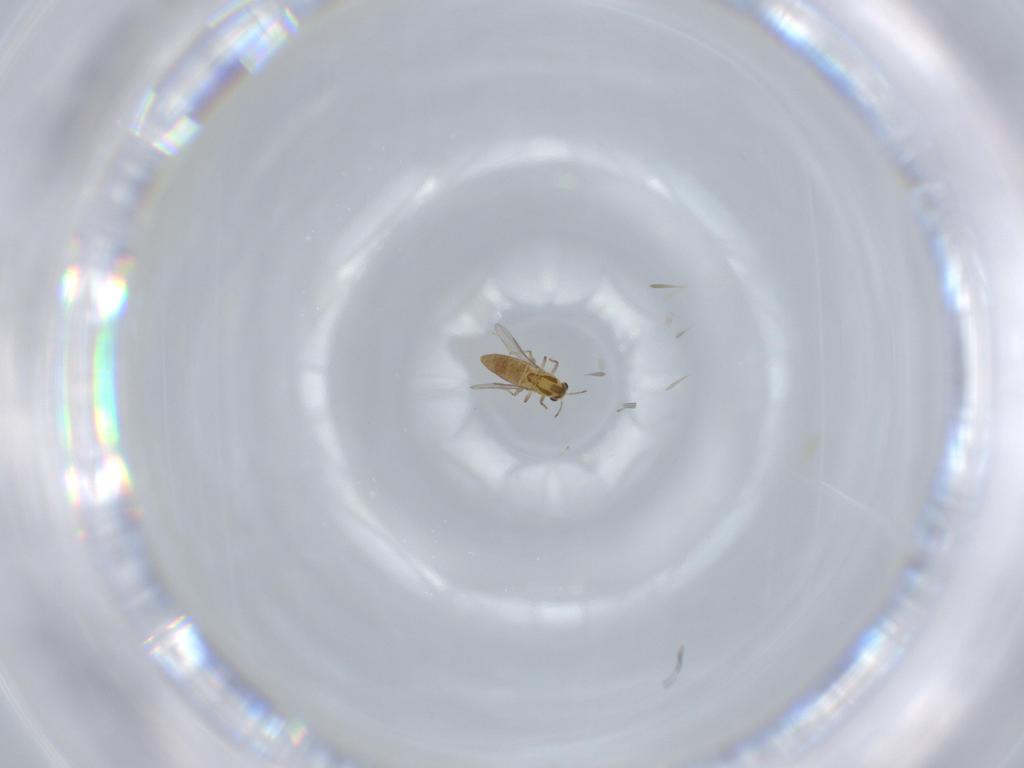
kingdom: Animalia
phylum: Arthropoda
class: Insecta
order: Diptera
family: Chironomidae
